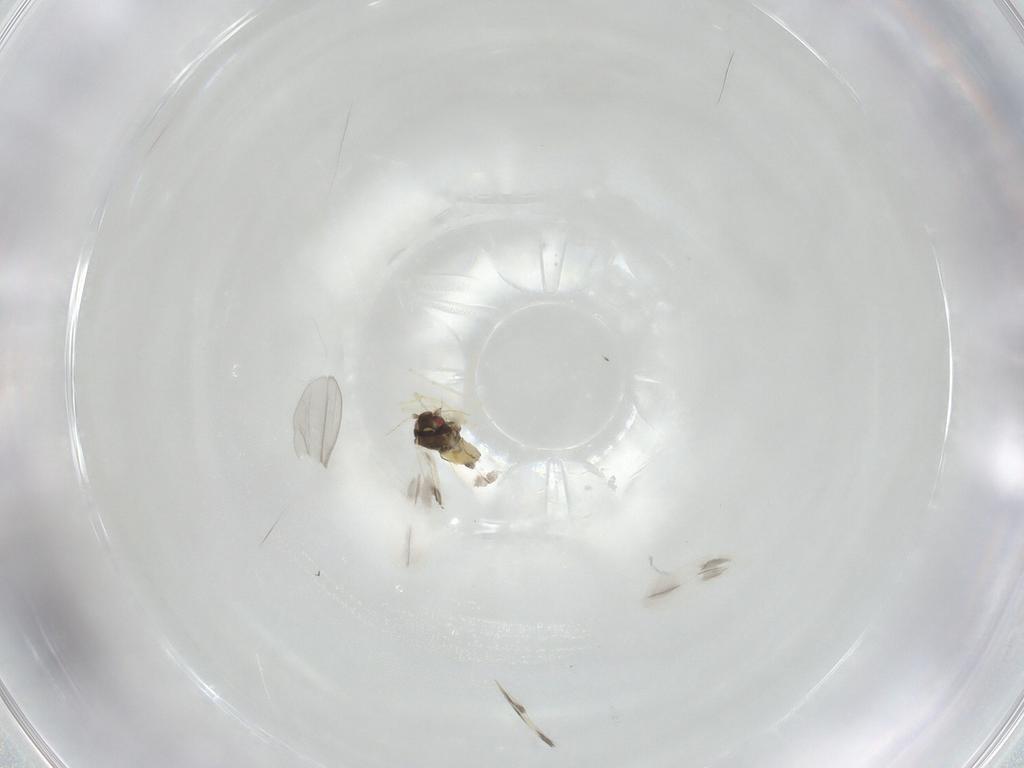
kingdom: Animalia
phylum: Arthropoda
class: Insecta
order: Hemiptera
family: Aleyrodidae
